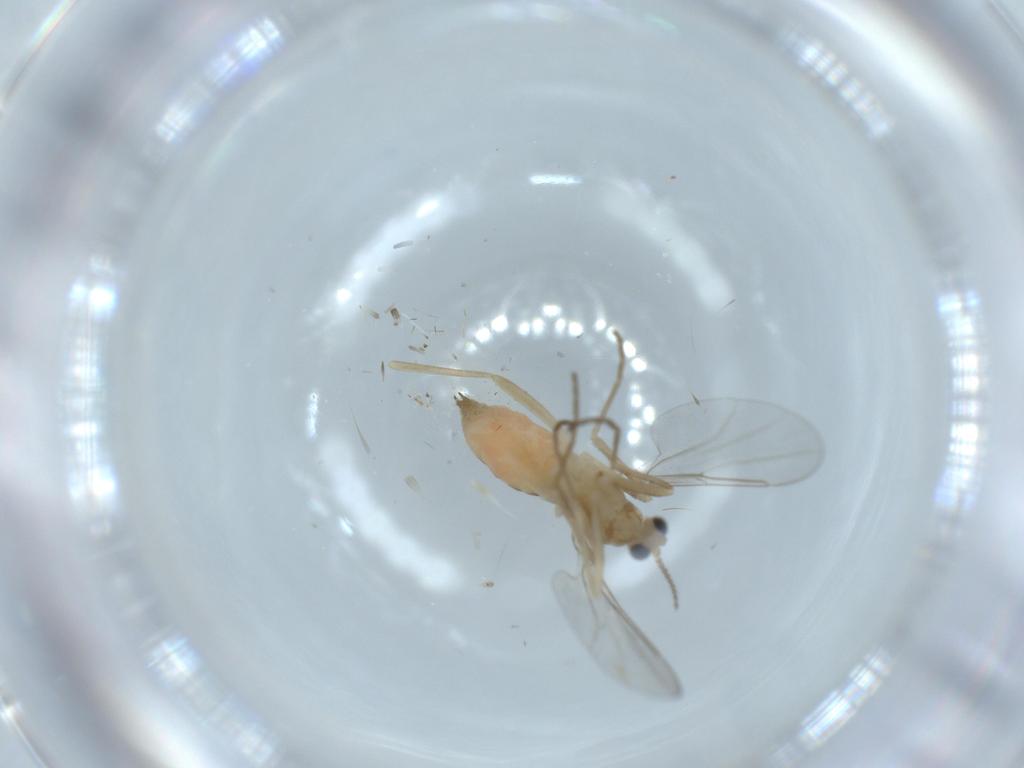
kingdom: Animalia
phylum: Arthropoda
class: Insecta
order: Diptera
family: Cecidomyiidae
